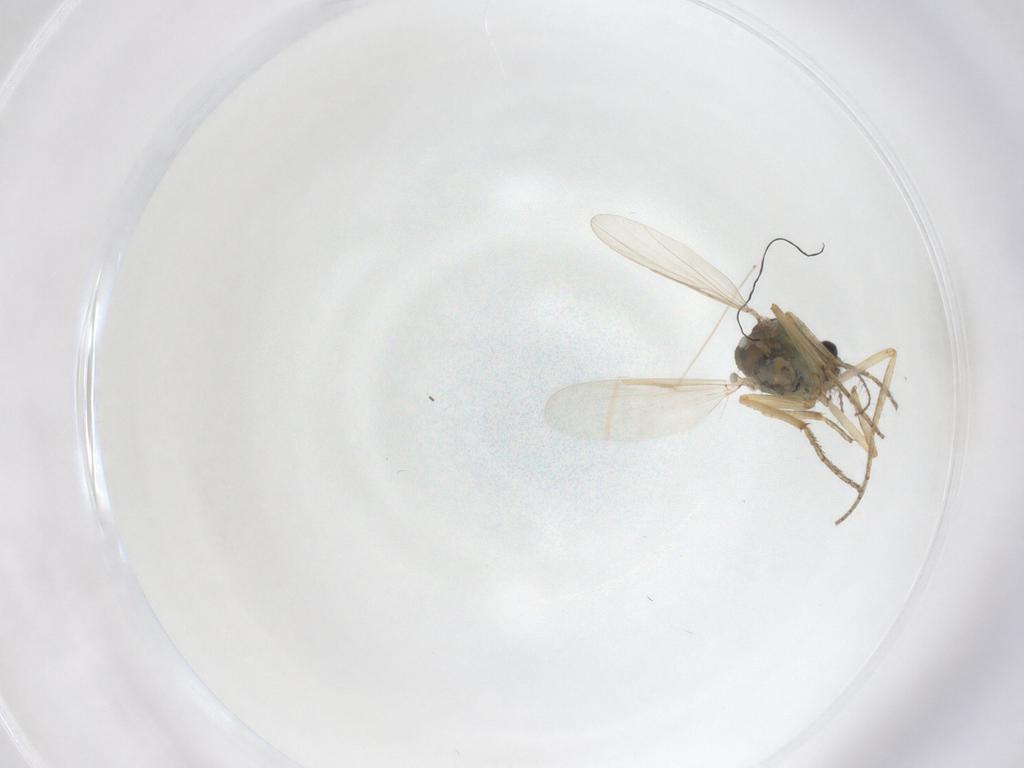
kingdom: Animalia
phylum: Arthropoda
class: Insecta
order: Diptera
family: Ceratopogonidae
